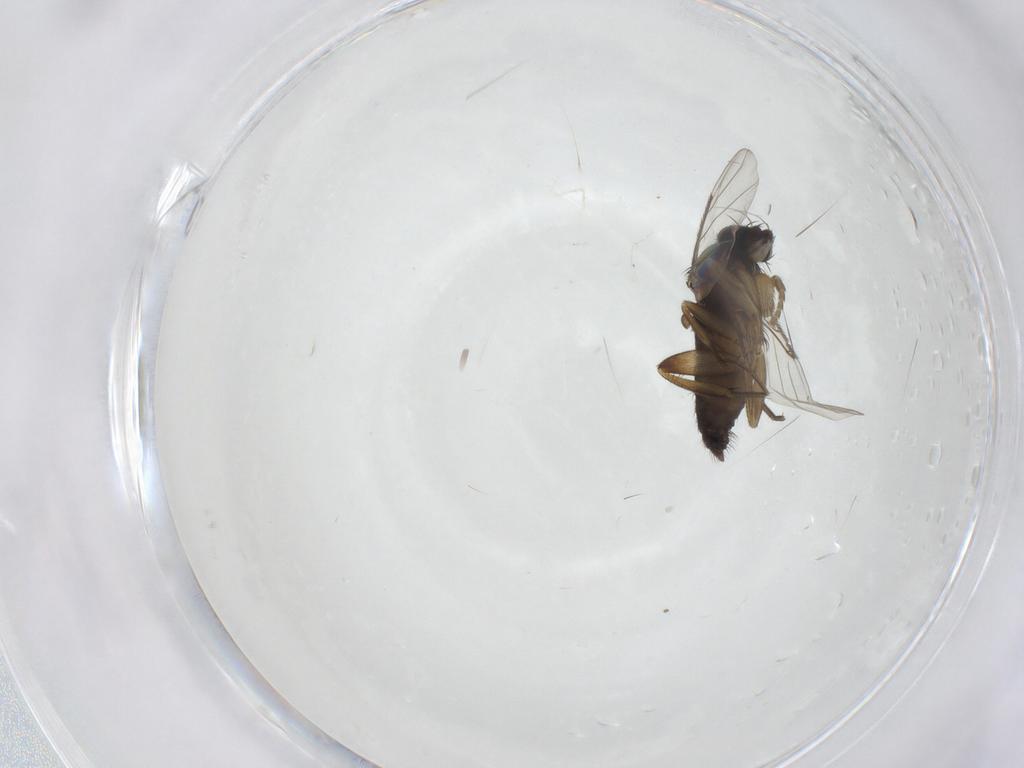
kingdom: Animalia
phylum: Arthropoda
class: Insecta
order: Diptera
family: Phoridae
